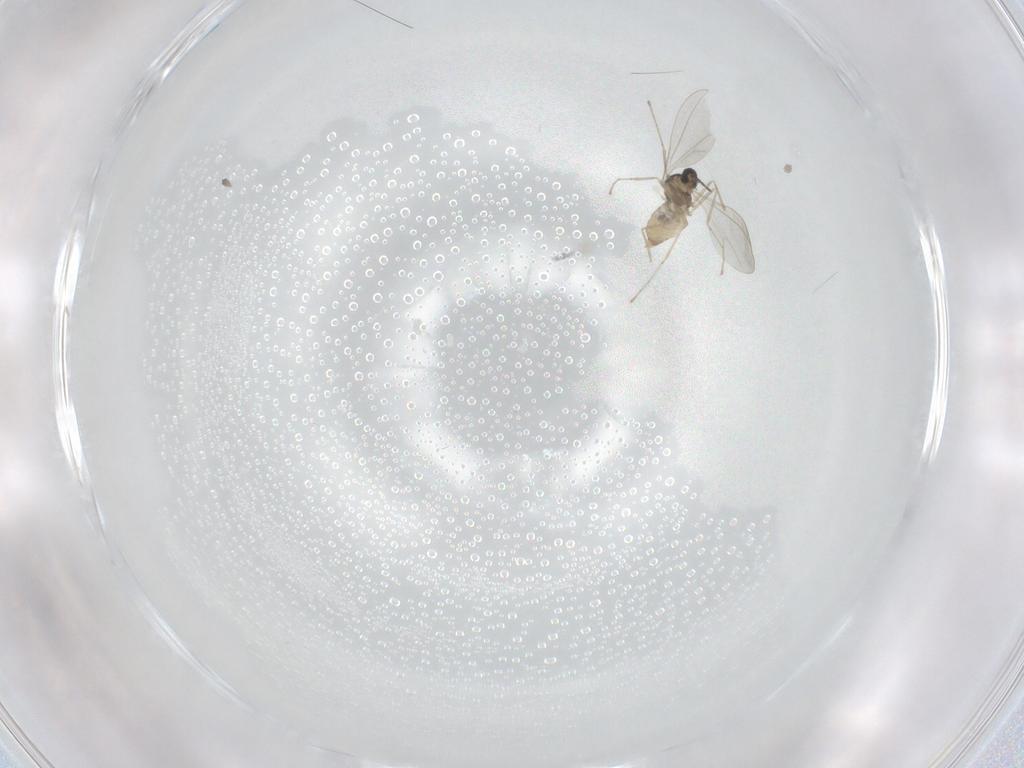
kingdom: Animalia
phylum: Arthropoda
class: Insecta
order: Diptera
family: Cecidomyiidae
